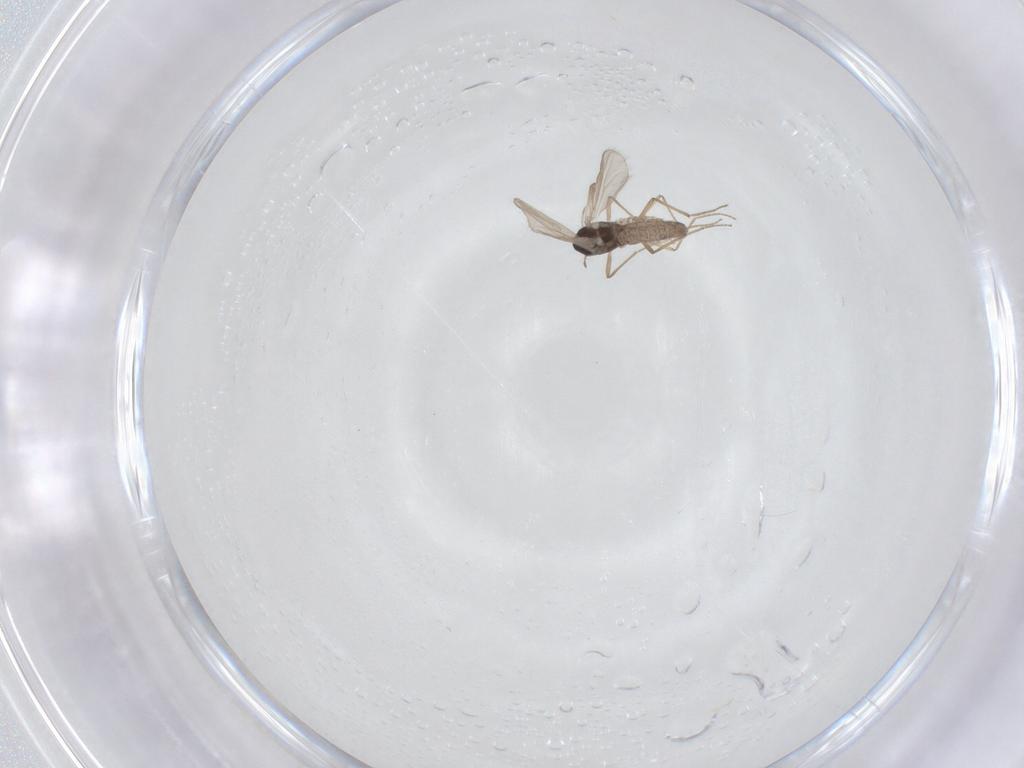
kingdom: Animalia
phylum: Arthropoda
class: Insecta
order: Diptera
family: Chironomidae
